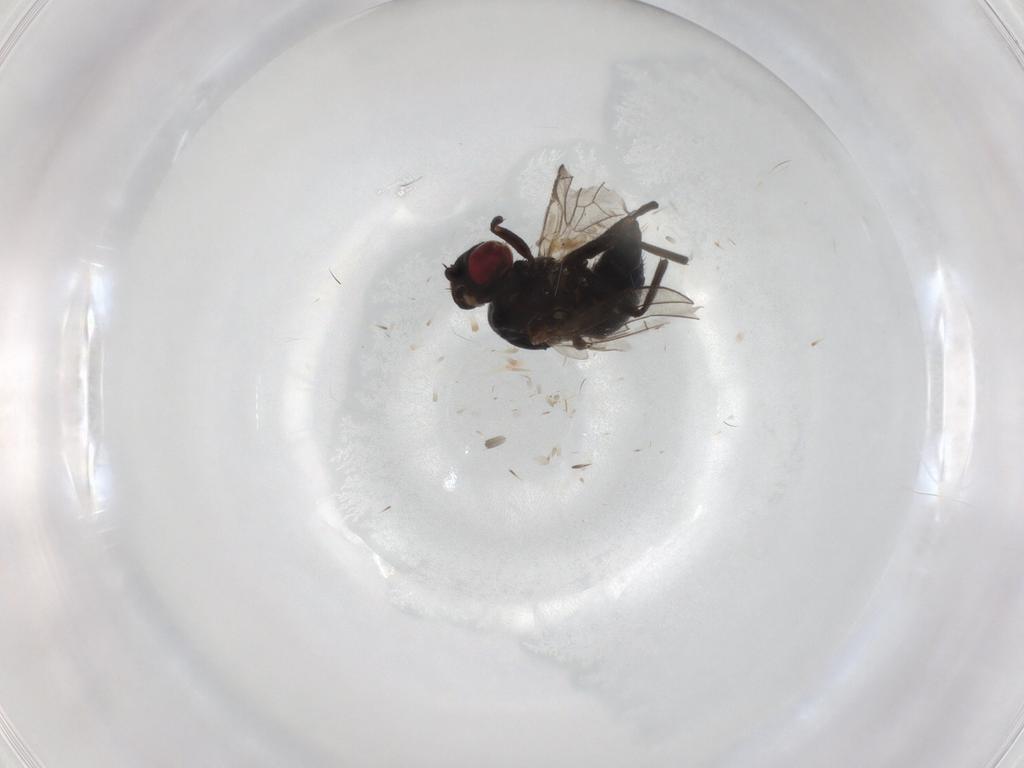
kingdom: Animalia
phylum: Arthropoda
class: Insecta
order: Diptera
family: Agromyzidae
